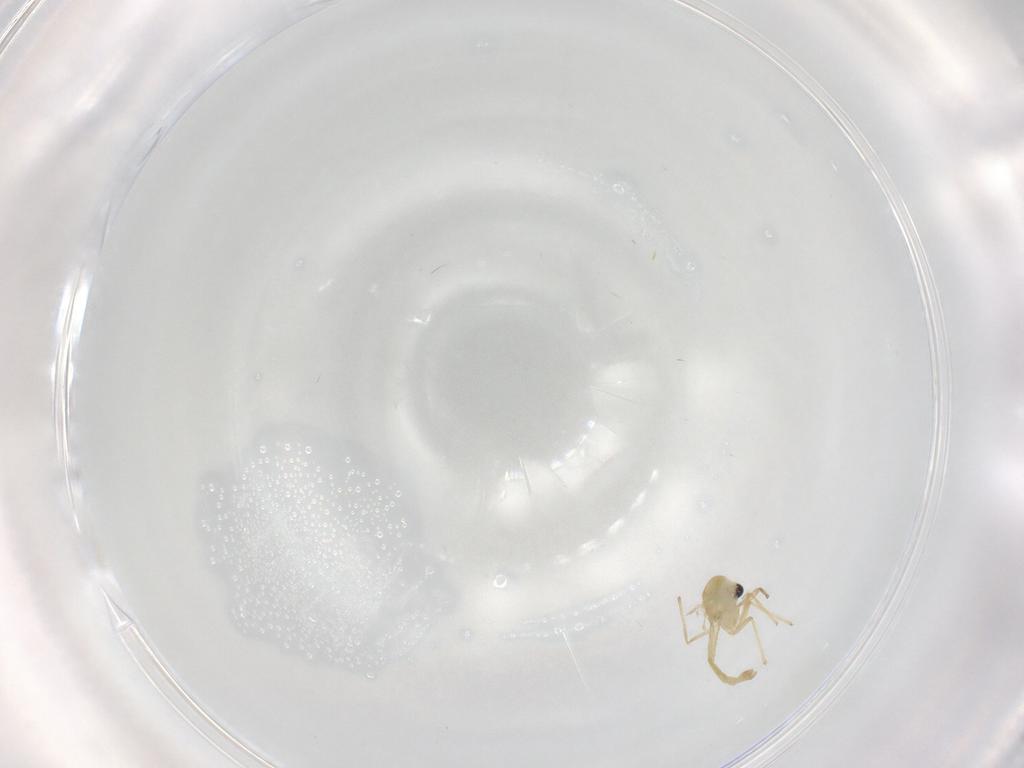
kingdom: Animalia
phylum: Arthropoda
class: Insecta
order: Diptera
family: Chironomidae
